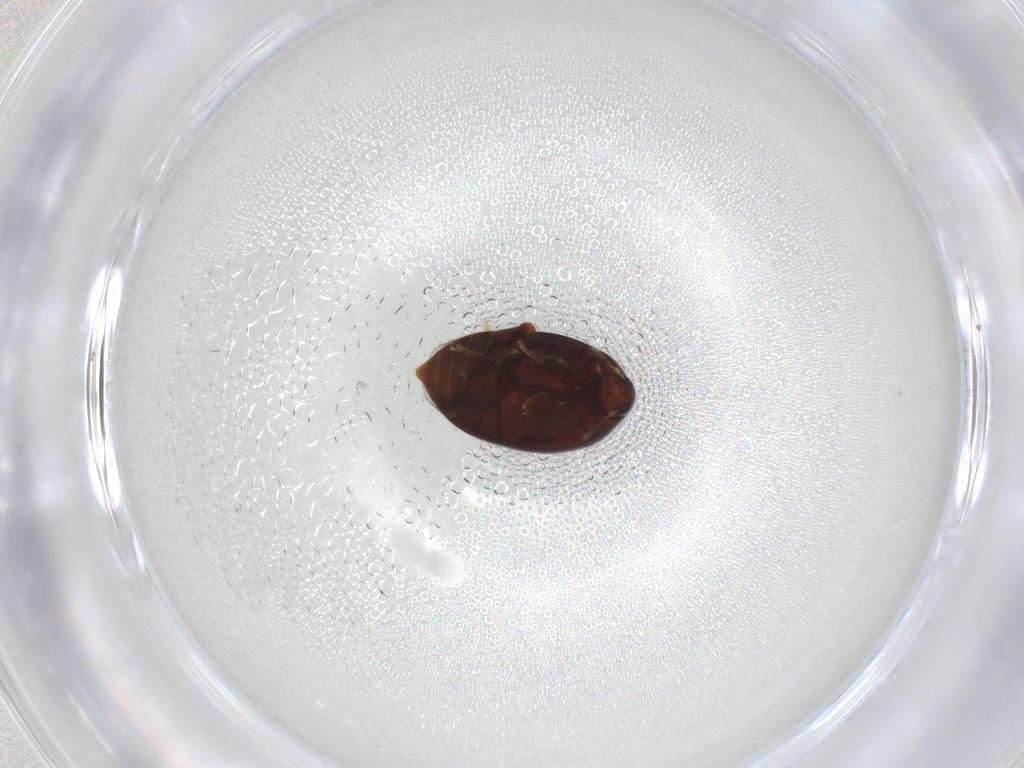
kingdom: Animalia
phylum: Arthropoda
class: Insecta
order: Coleoptera
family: Melandryidae
